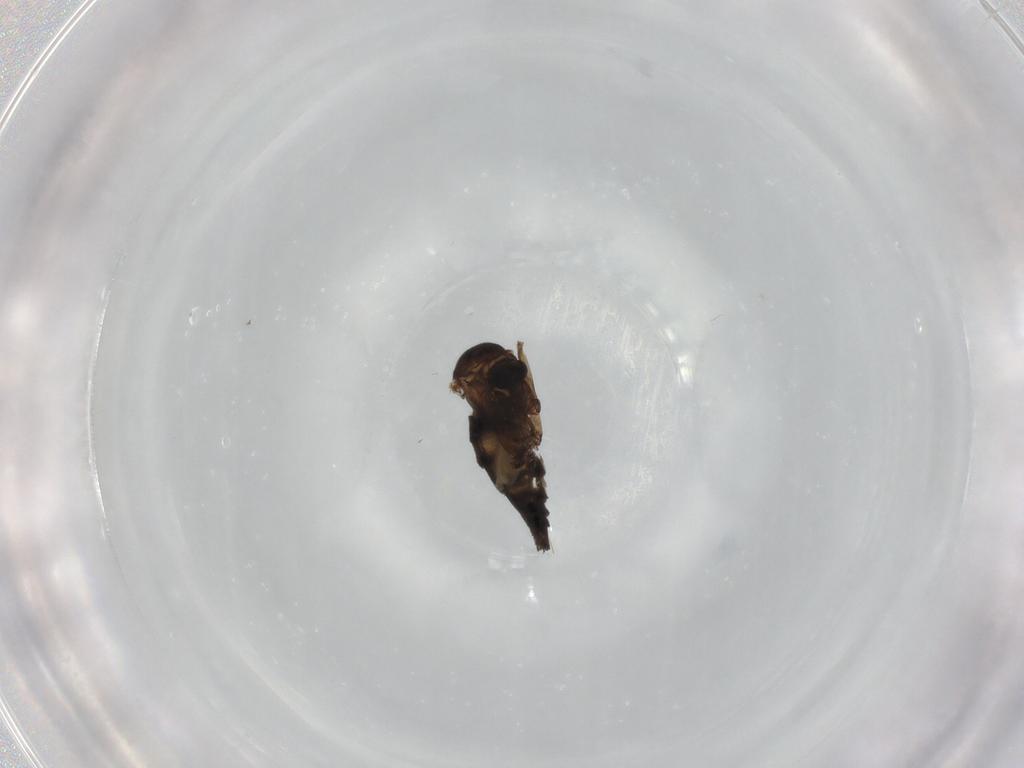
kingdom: Animalia
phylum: Arthropoda
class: Insecta
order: Diptera
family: Sciaridae
